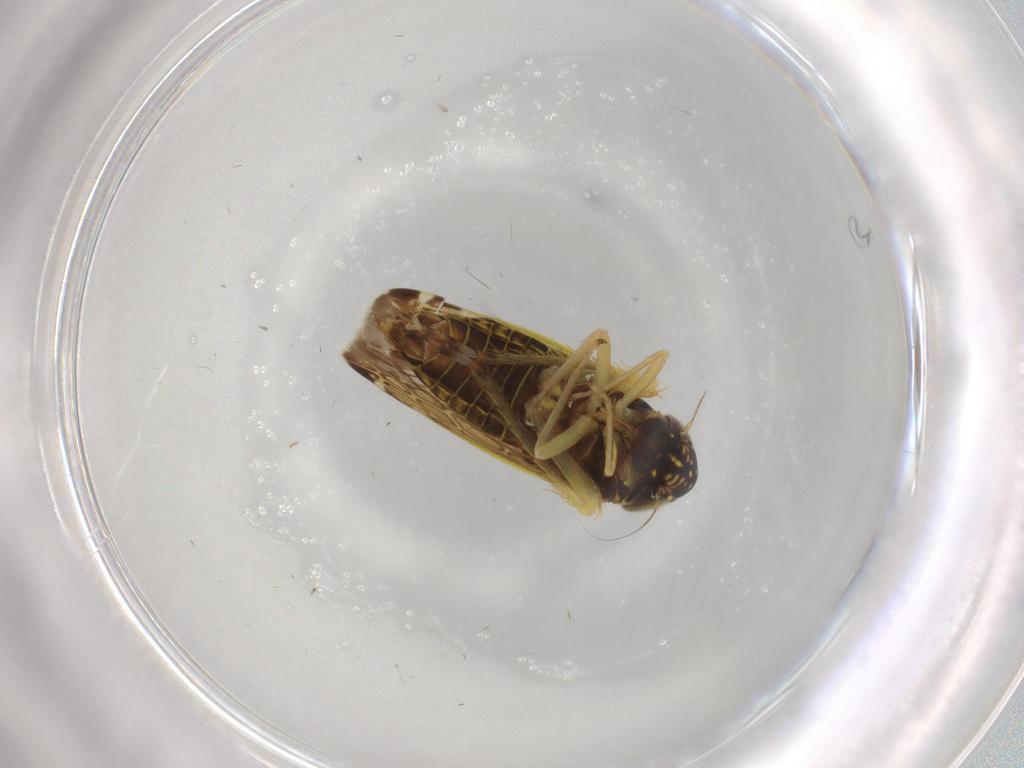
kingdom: Animalia
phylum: Arthropoda
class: Insecta
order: Hemiptera
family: Cicadellidae
